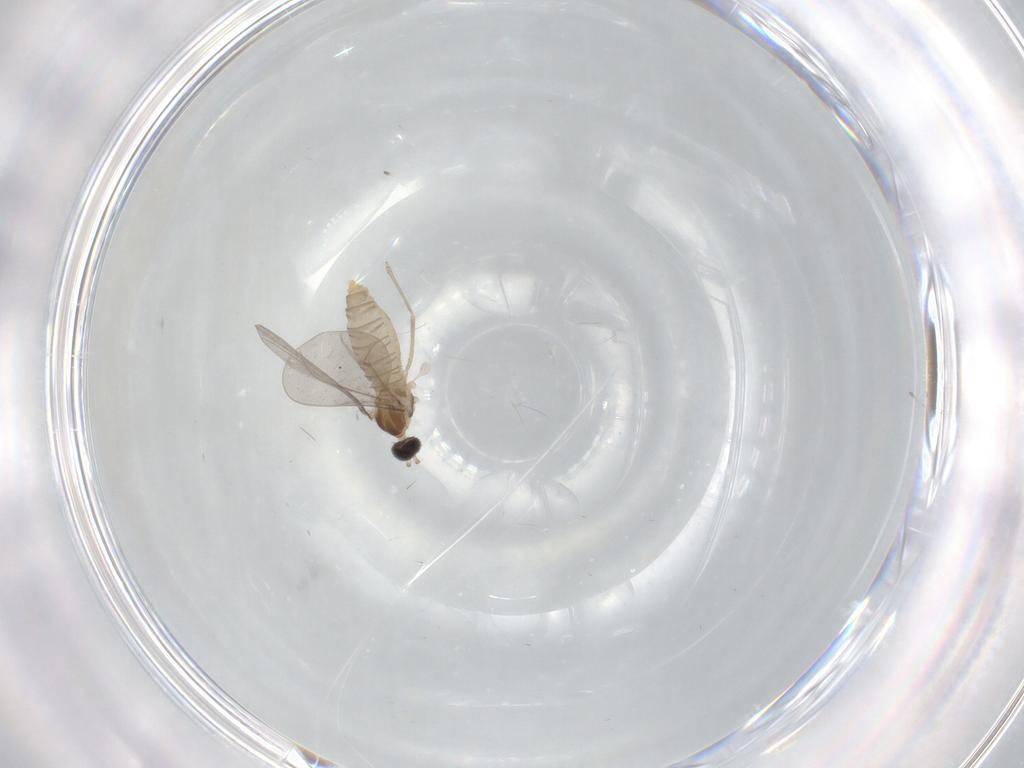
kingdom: Animalia
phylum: Arthropoda
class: Insecta
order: Diptera
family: Cecidomyiidae
